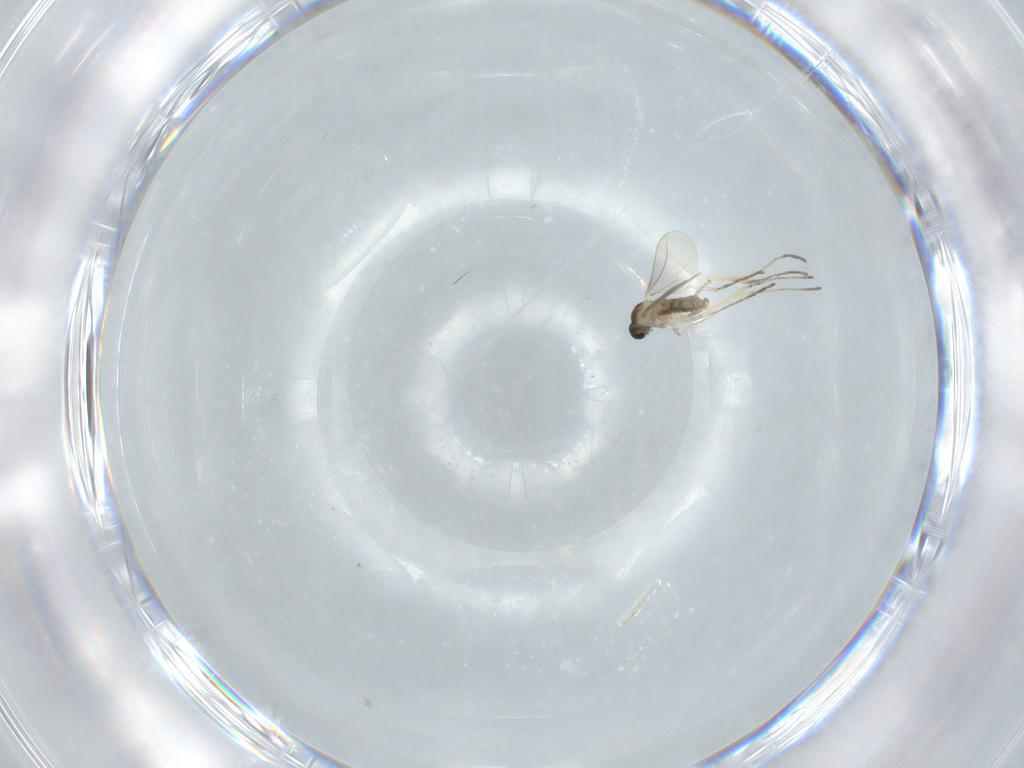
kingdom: Animalia
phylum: Arthropoda
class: Insecta
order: Diptera
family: Cecidomyiidae
